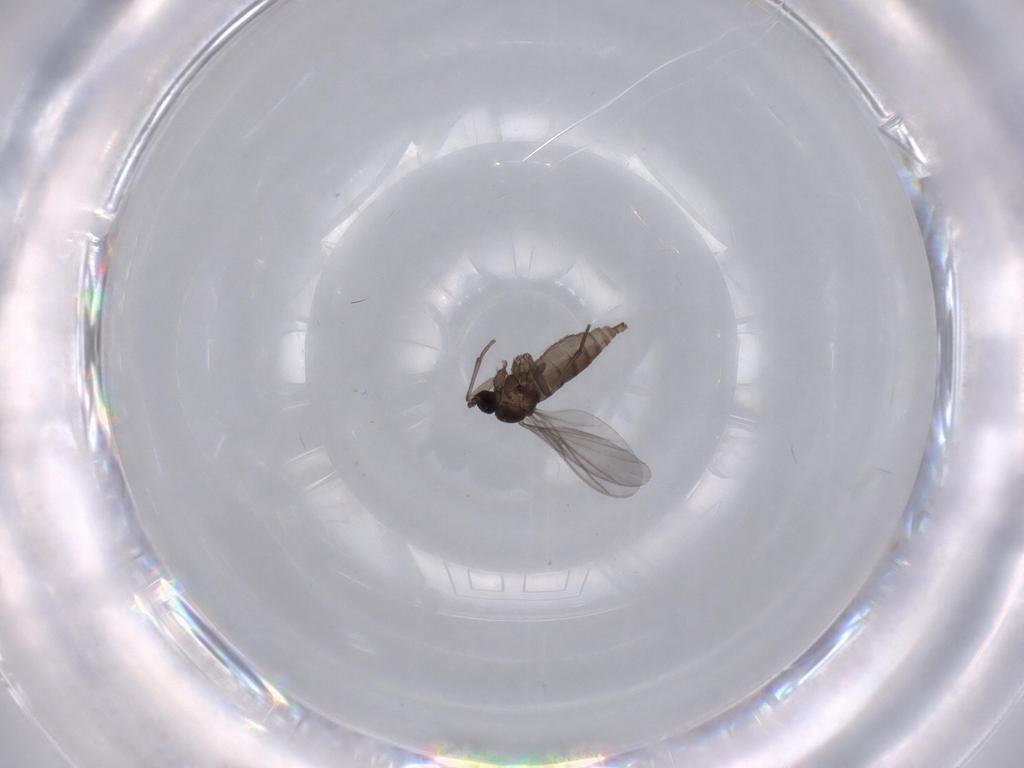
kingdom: Animalia
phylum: Arthropoda
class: Insecta
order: Diptera
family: Sciaridae
